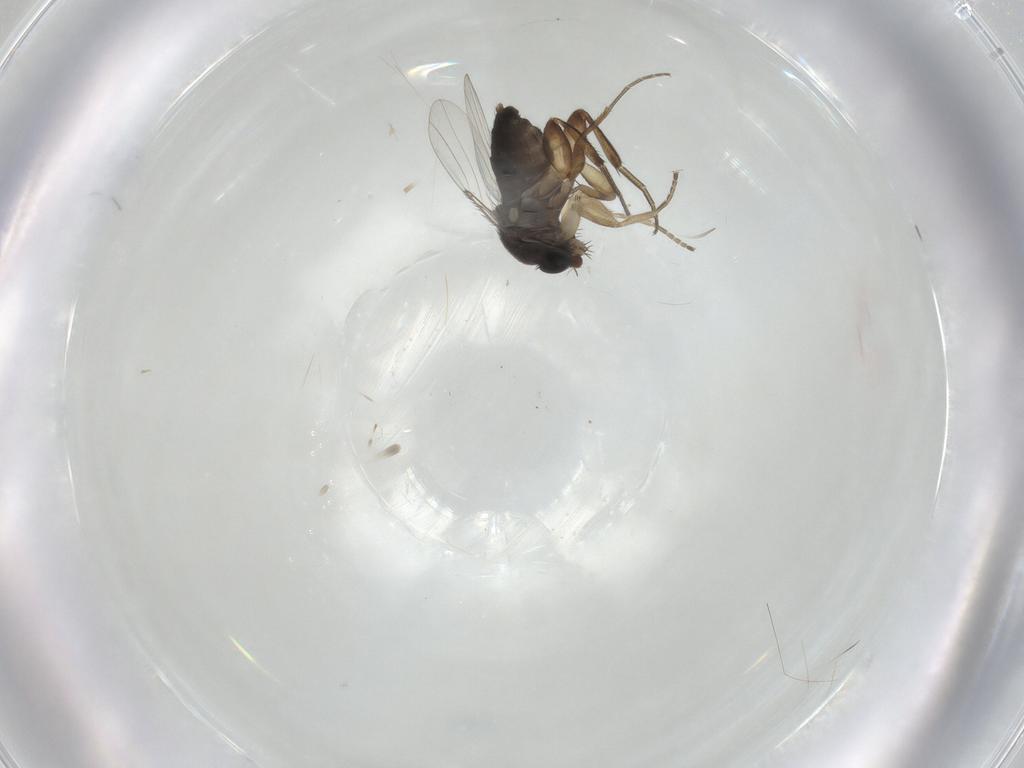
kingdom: Animalia
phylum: Arthropoda
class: Insecta
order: Diptera
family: Phoridae
